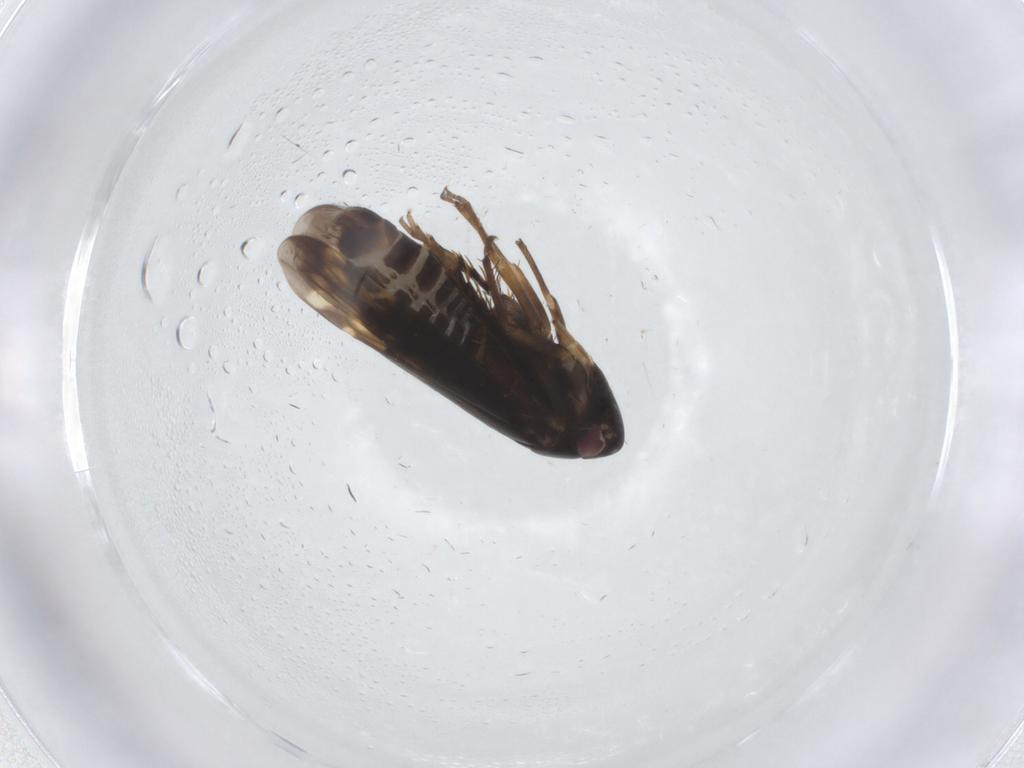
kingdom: Animalia
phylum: Arthropoda
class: Insecta
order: Hemiptera
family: Cicadellidae
